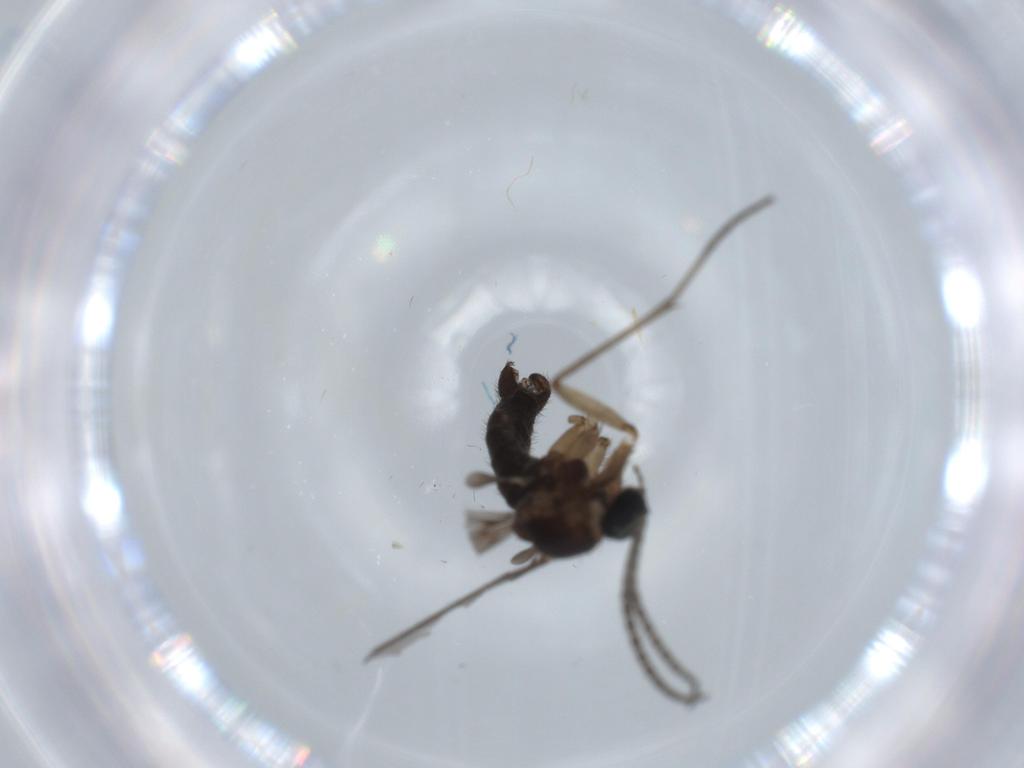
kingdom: Animalia
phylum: Arthropoda
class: Insecta
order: Diptera
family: Sciaridae
